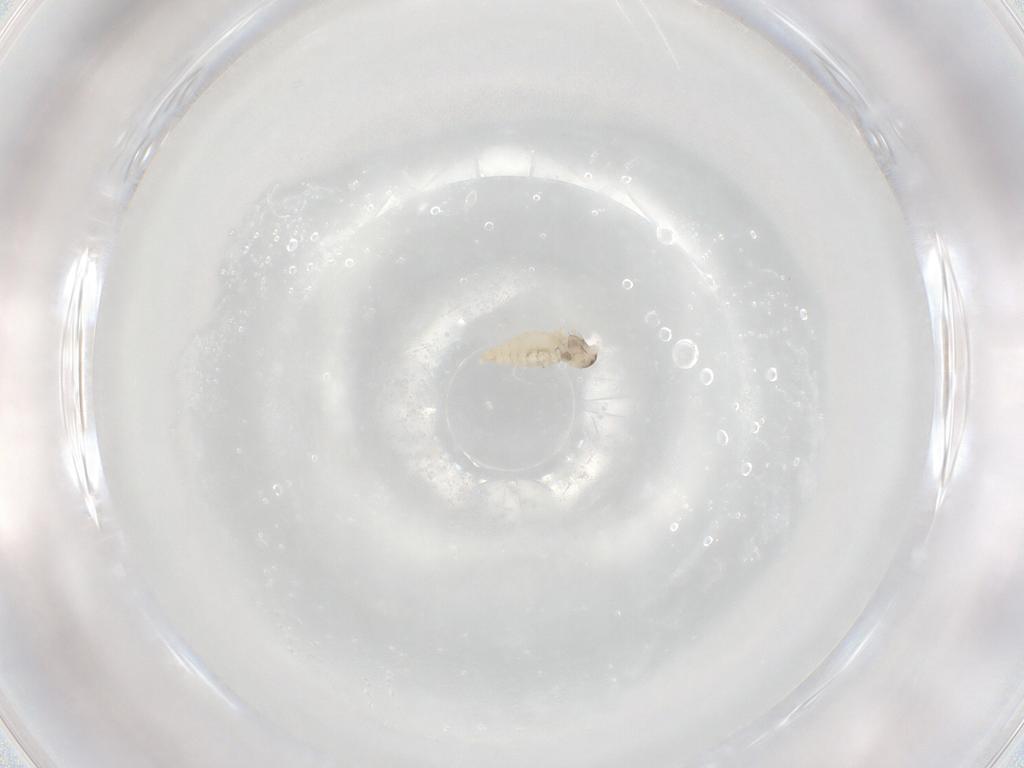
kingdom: Animalia
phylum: Arthropoda
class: Insecta
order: Diptera
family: Cecidomyiidae
